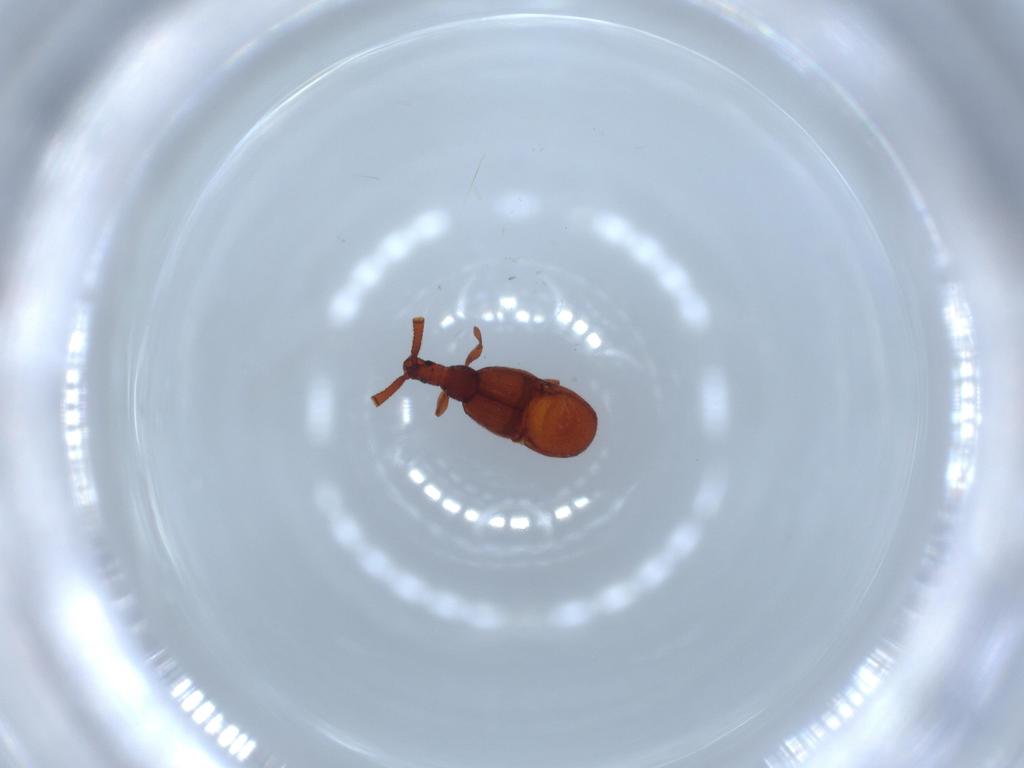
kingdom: Animalia
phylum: Arthropoda
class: Insecta
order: Coleoptera
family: Staphylinidae
